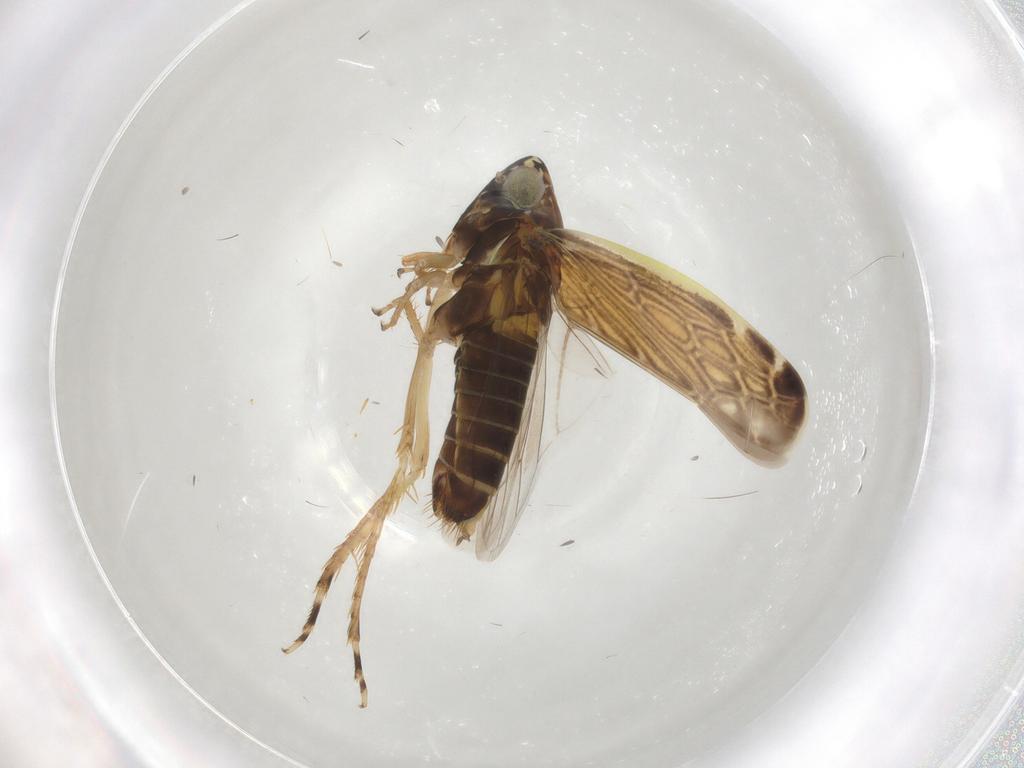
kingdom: Animalia
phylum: Arthropoda
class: Insecta
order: Hemiptera
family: Cicadellidae
